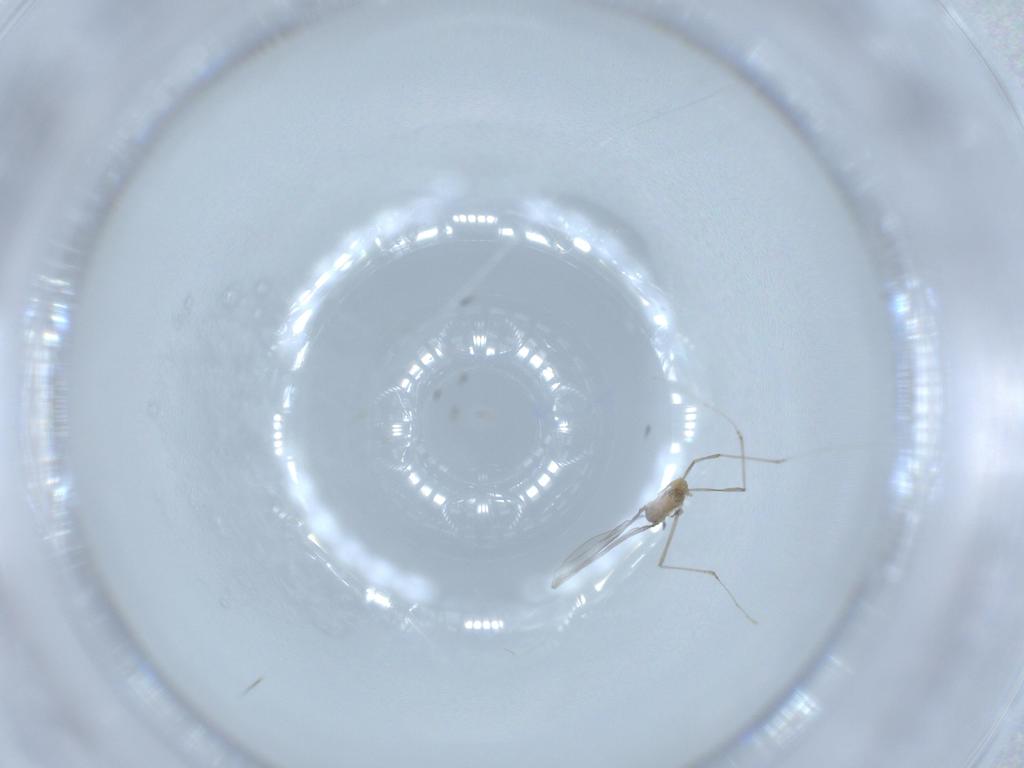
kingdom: Animalia
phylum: Arthropoda
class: Insecta
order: Diptera
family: Cecidomyiidae
